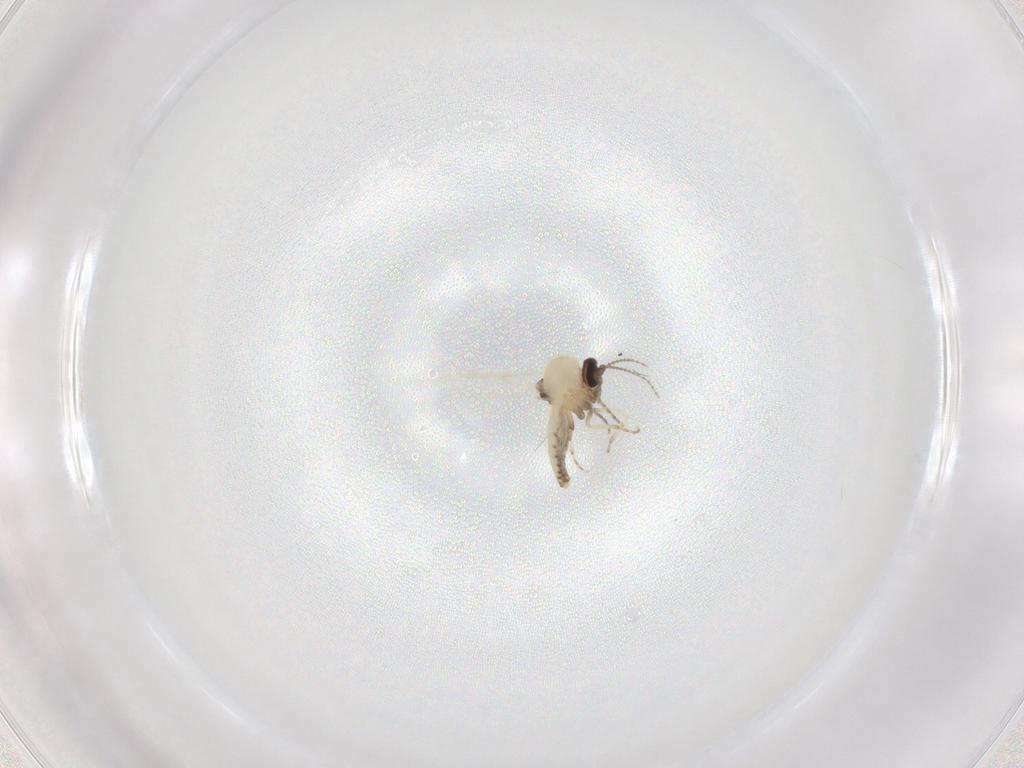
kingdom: Animalia
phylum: Arthropoda
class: Insecta
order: Diptera
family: Ceratopogonidae
